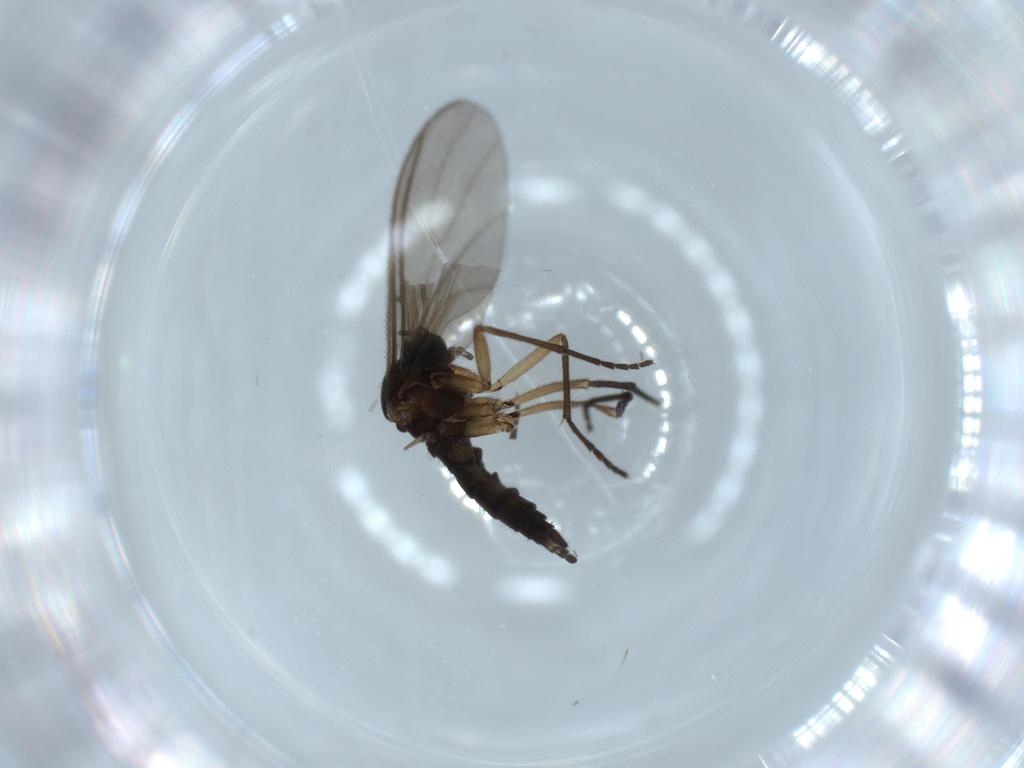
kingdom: Animalia
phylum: Arthropoda
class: Insecta
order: Diptera
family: Sciaridae
